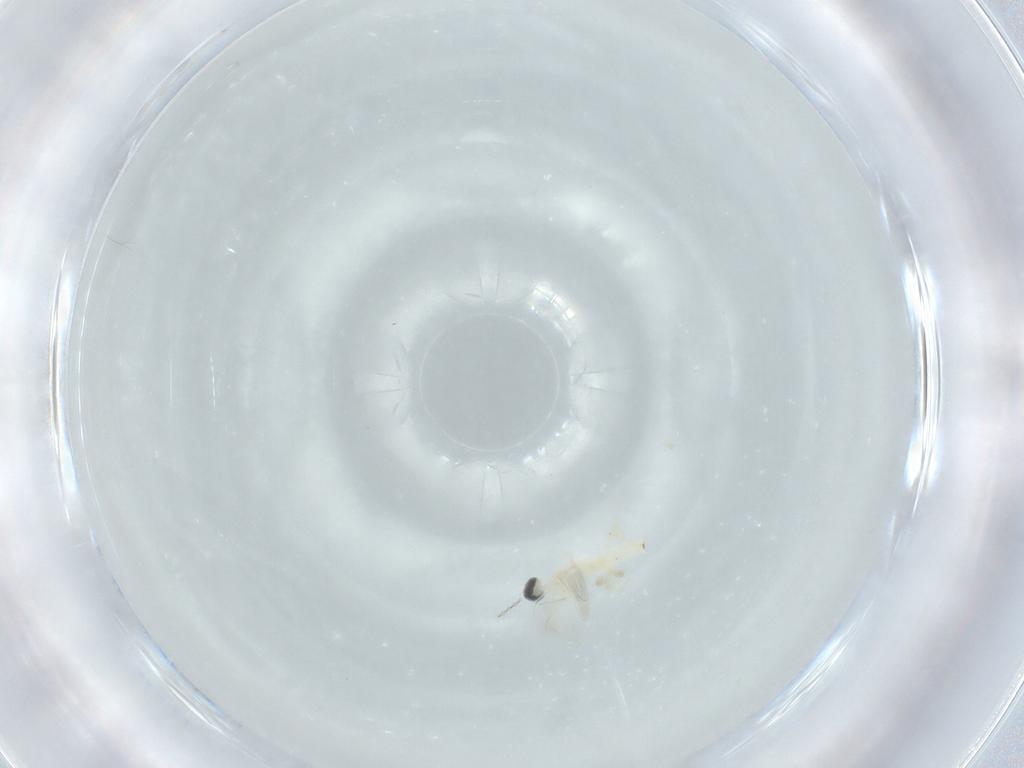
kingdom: Animalia
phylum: Arthropoda
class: Insecta
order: Diptera
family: Cecidomyiidae
